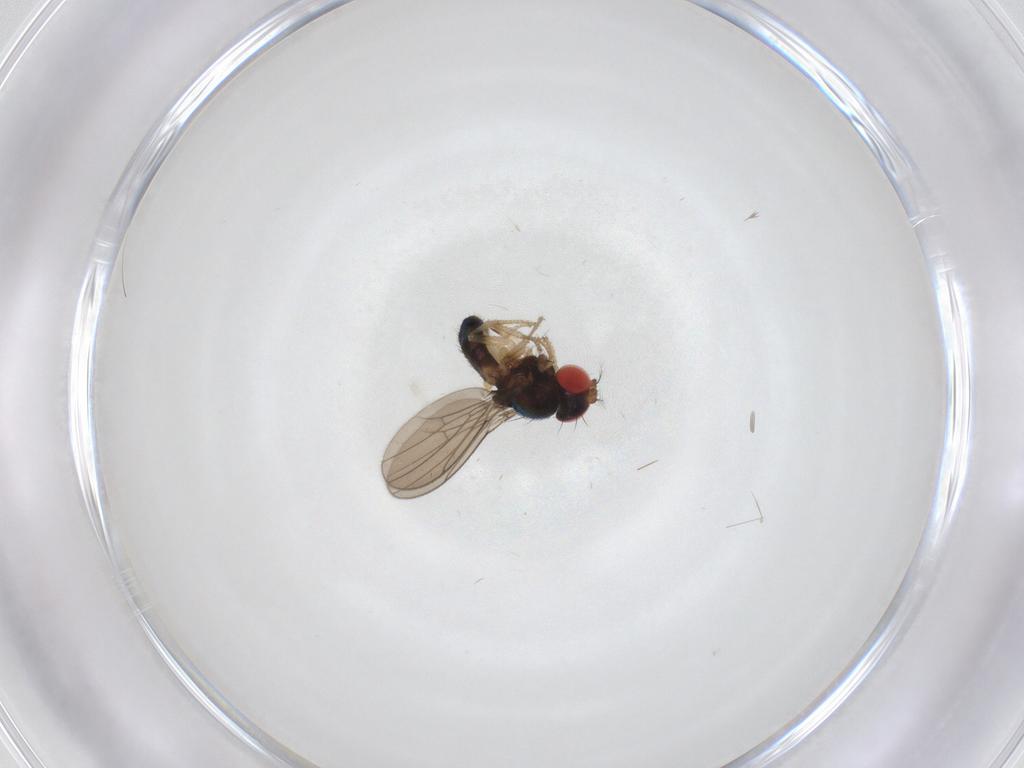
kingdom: Animalia
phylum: Arthropoda
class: Insecta
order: Diptera
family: Drosophilidae
